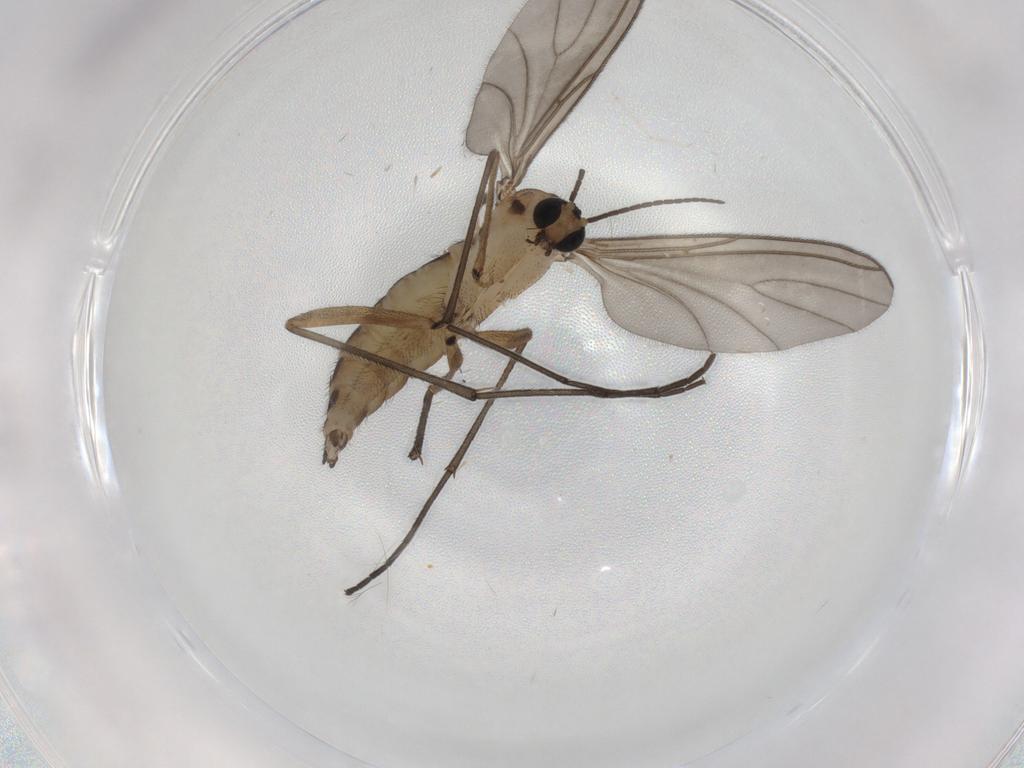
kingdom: Animalia
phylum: Arthropoda
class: Insecta
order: Diptera
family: Sciaridae
